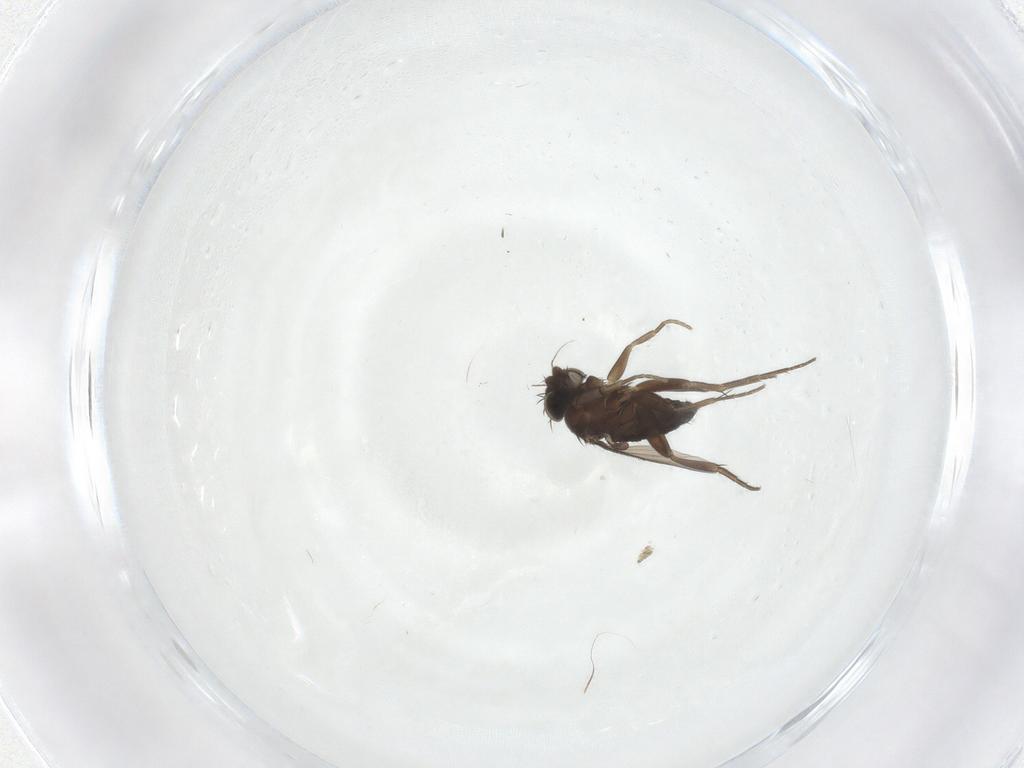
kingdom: Animalia
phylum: Arthropoda
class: Insecta
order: Diptera
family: Phoridae
